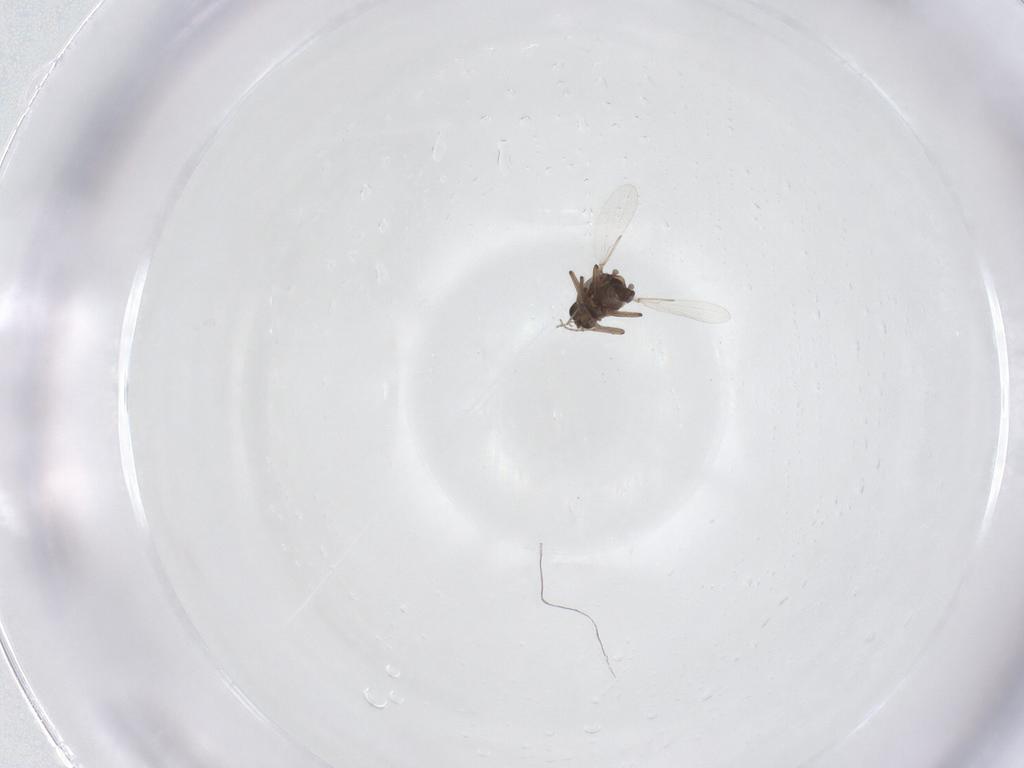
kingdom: Animalia
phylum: Arthropoda
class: Insecta
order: Diptera
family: Ceratopogonidae
